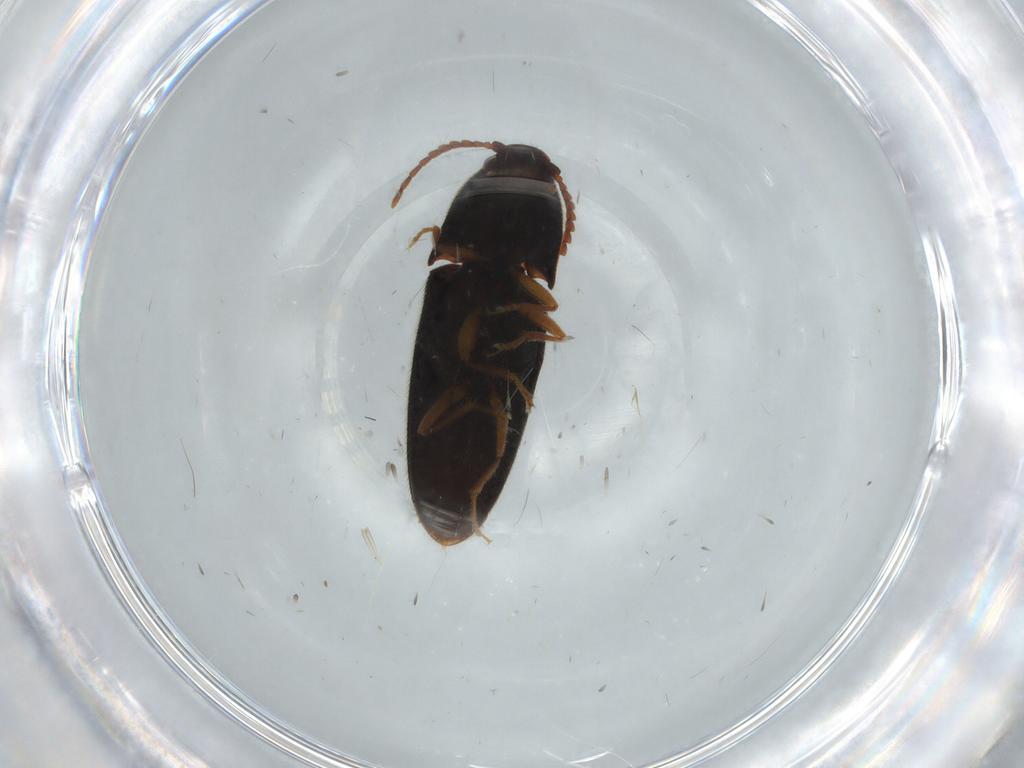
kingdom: Animalia
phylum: Arthropoda
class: Insecta
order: Coleoptera
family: Elateridae
